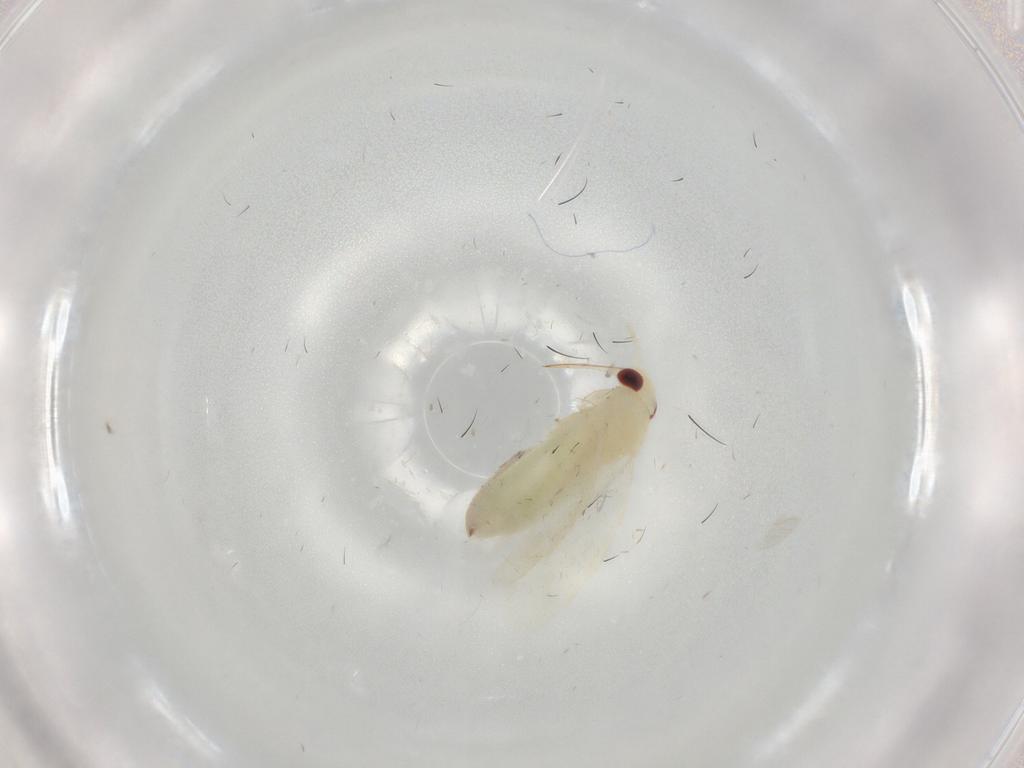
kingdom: Animalia
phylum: Arthropoda
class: Insecta
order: Hemiptera
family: Miridae
